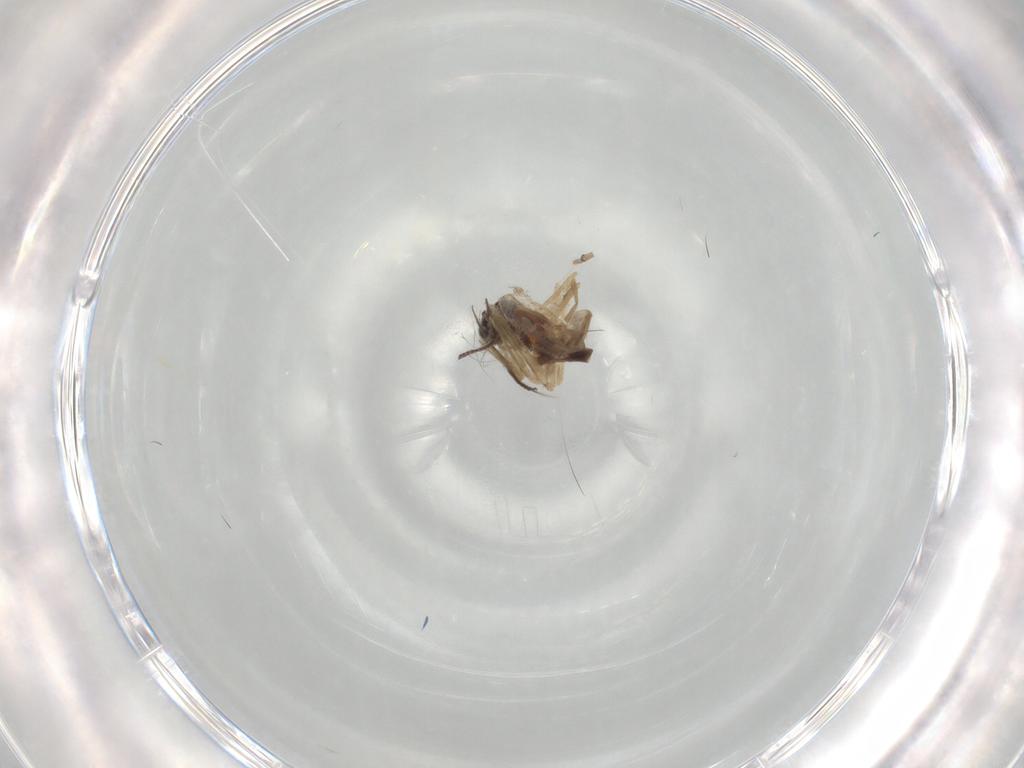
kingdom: Animalia
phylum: Arthropoda
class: Insecta
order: Diptera
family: Chironomidae
